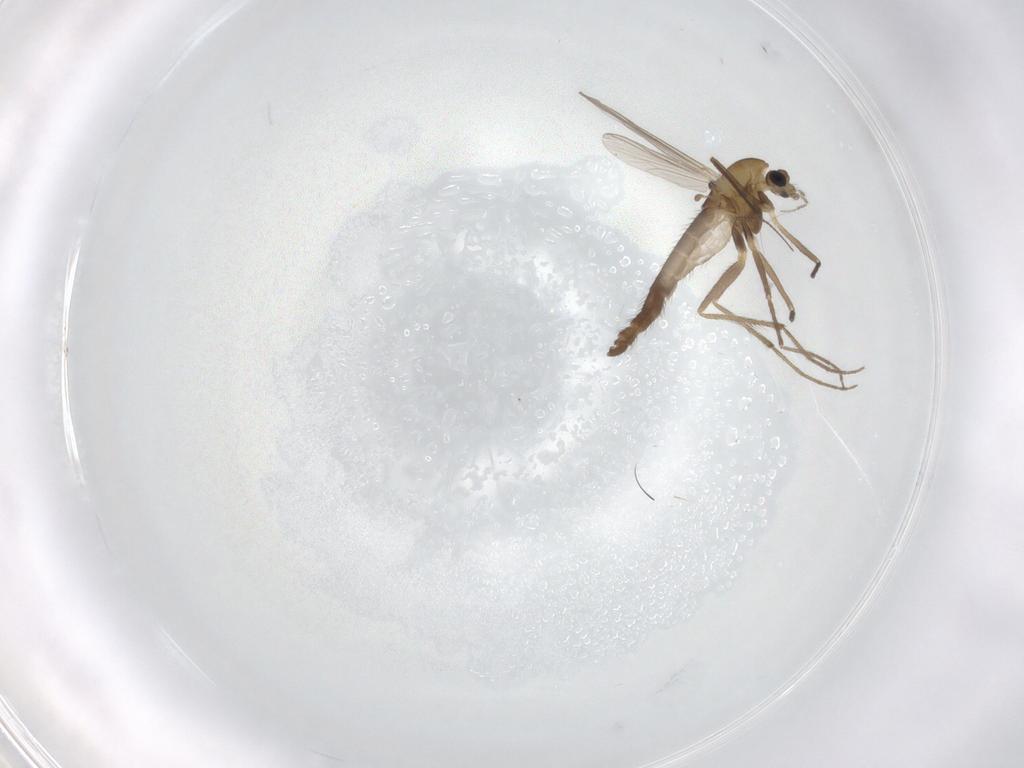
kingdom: Animalia
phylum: Arthropoda
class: Insecta
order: Diptera
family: Chironomidae
